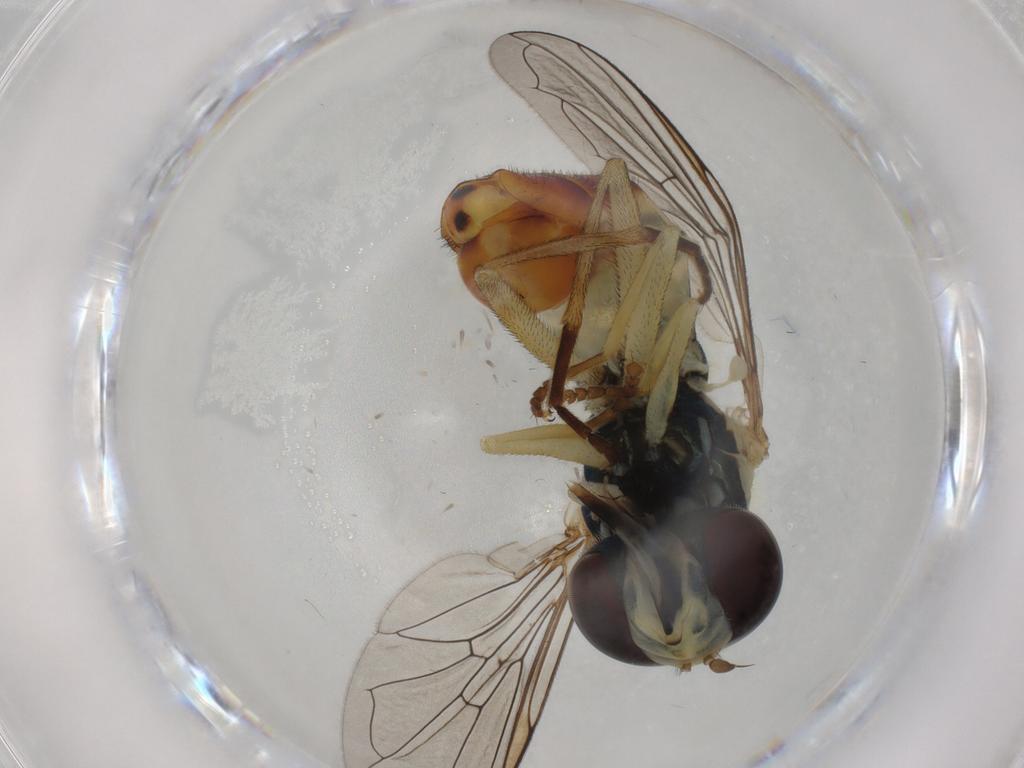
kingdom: Animalia
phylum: Arthropoda
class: Insecta
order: Diptera
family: Syrphidae
